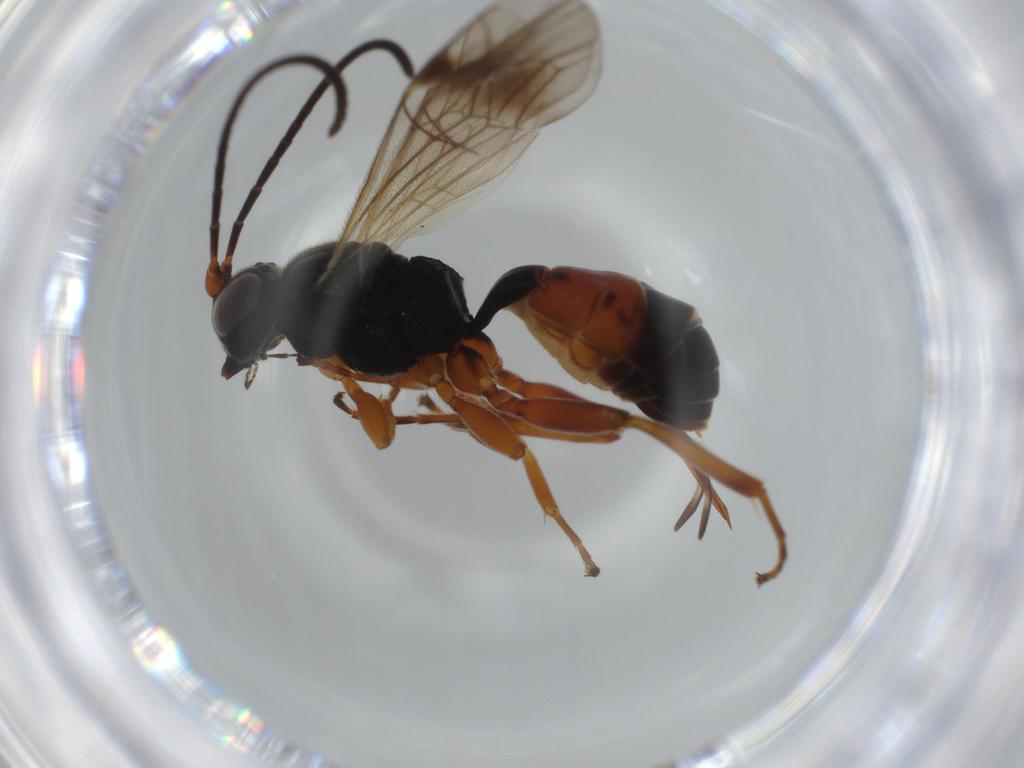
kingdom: Animalia
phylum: Arthropoda
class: Insecta
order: Hymenoptera
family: Ichneumonidae
